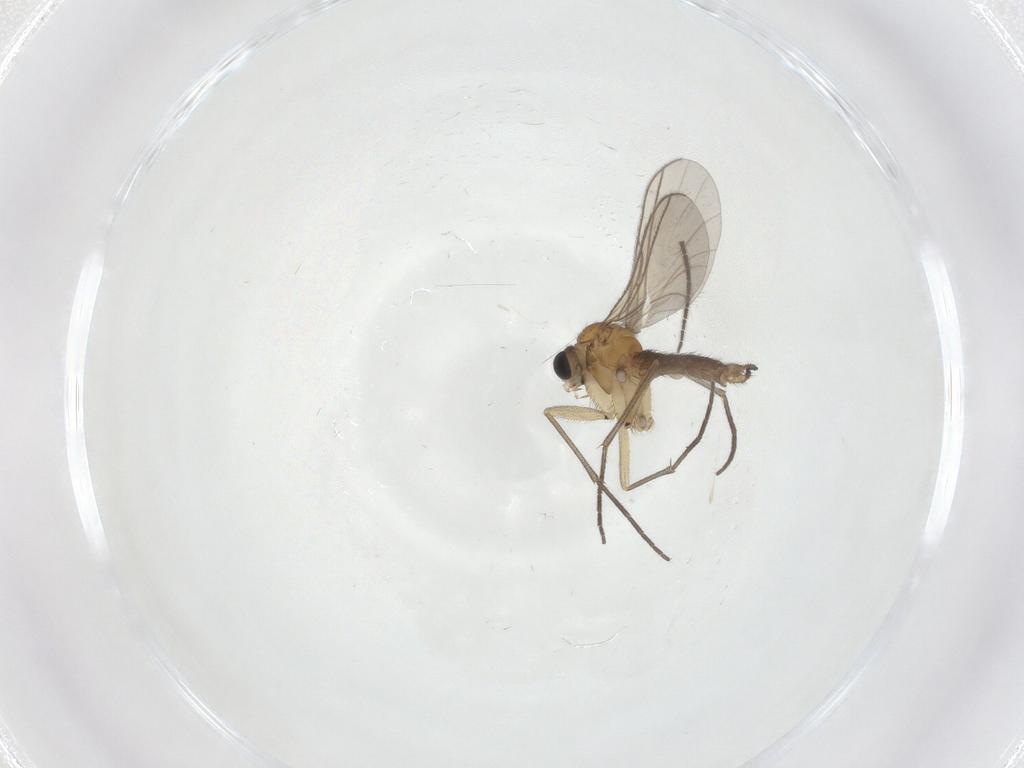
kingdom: Animalia
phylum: Arthropoda
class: Insecta
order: Diptera
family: Sciaridae
